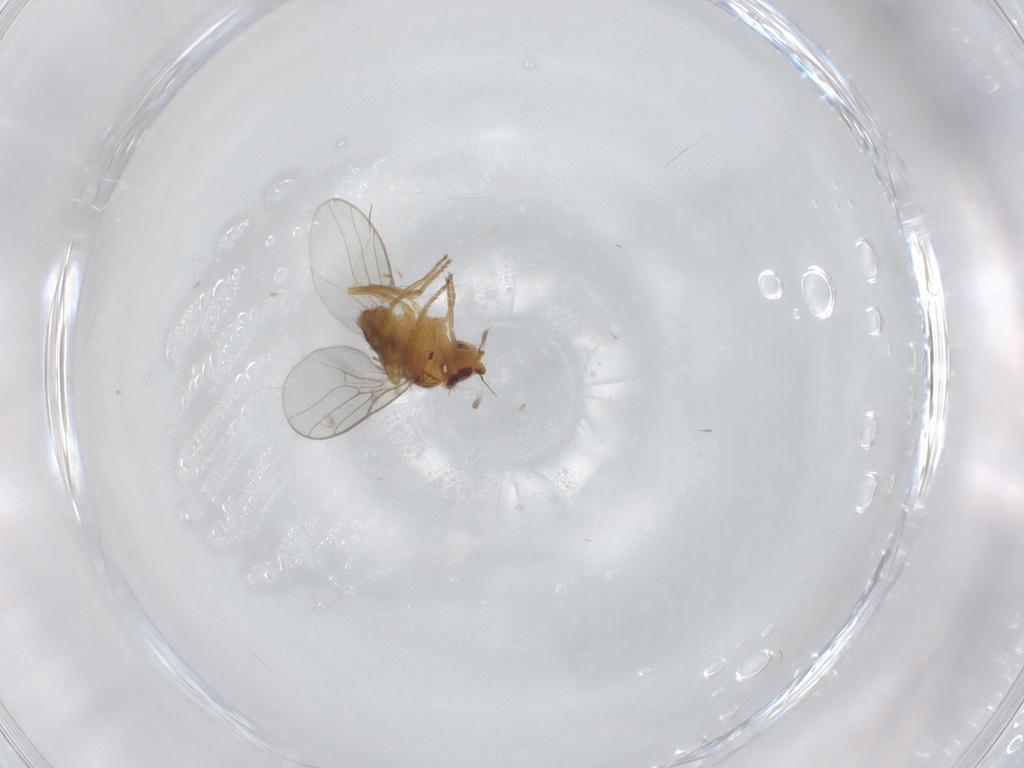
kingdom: Animalia
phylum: Arthropoda
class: Insecta
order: Diptera
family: Chloropidae
